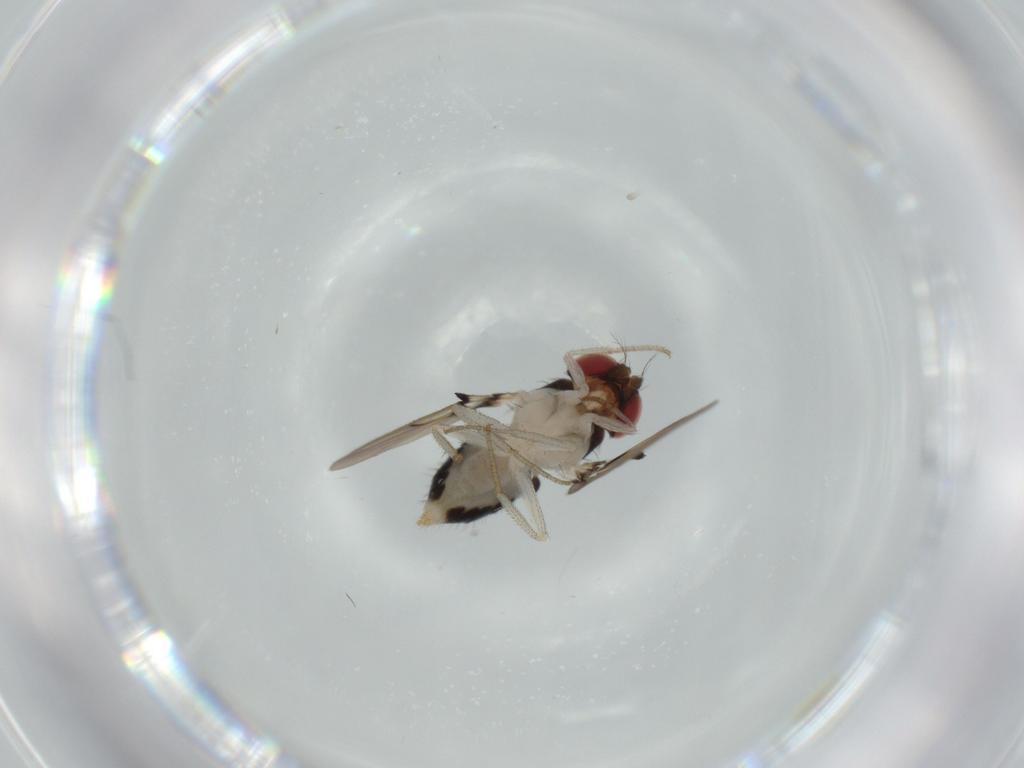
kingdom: Animalia
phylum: Arthropoda
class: Insecta
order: Diptera
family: Drosophilidae
